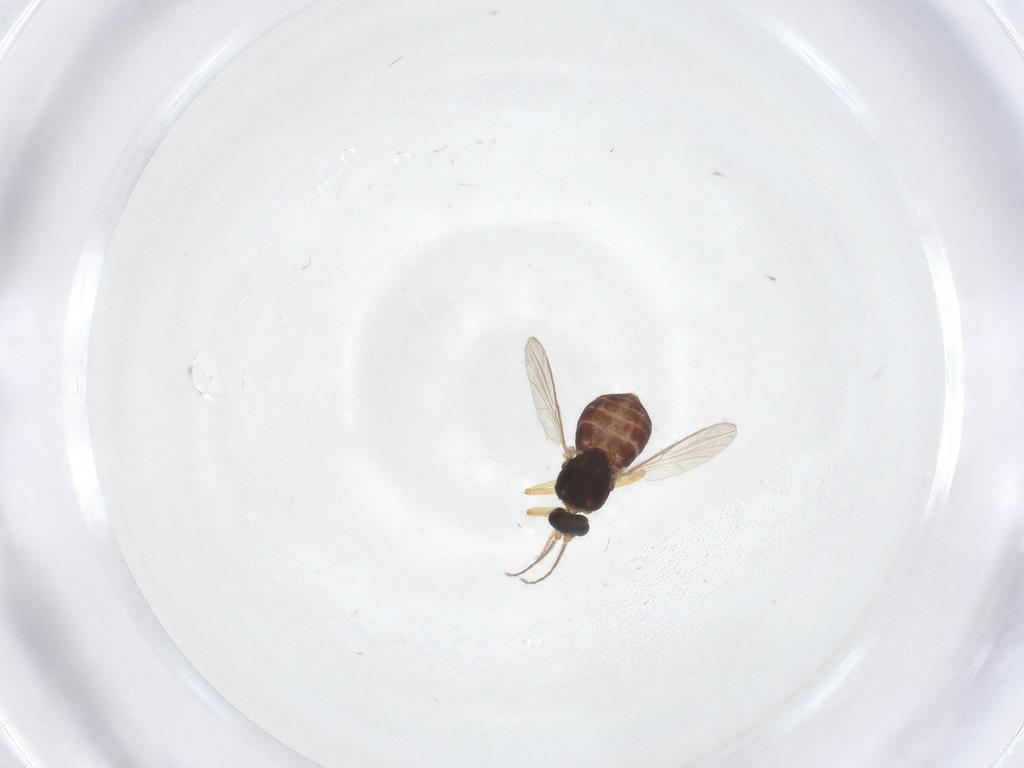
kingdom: Animalia
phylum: Arthropoda
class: Insecta
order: Diptera
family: Ceratopogonidae
